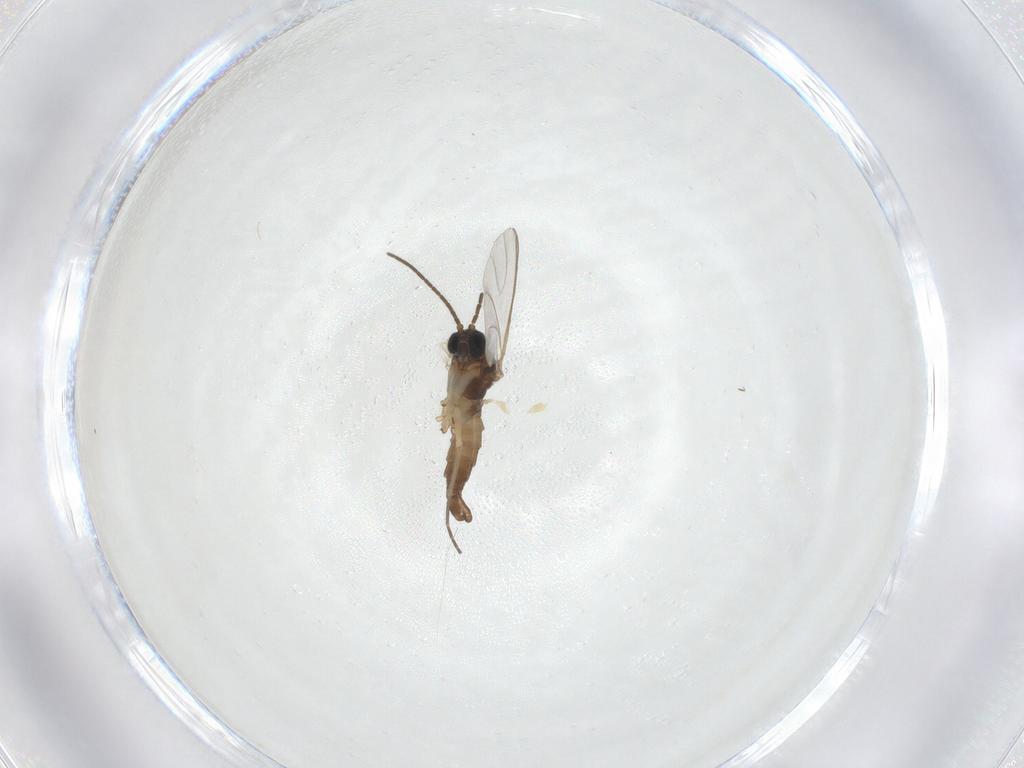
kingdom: Animalia
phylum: Arthropoda
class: Insecta
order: Diptera
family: Sciaridae
